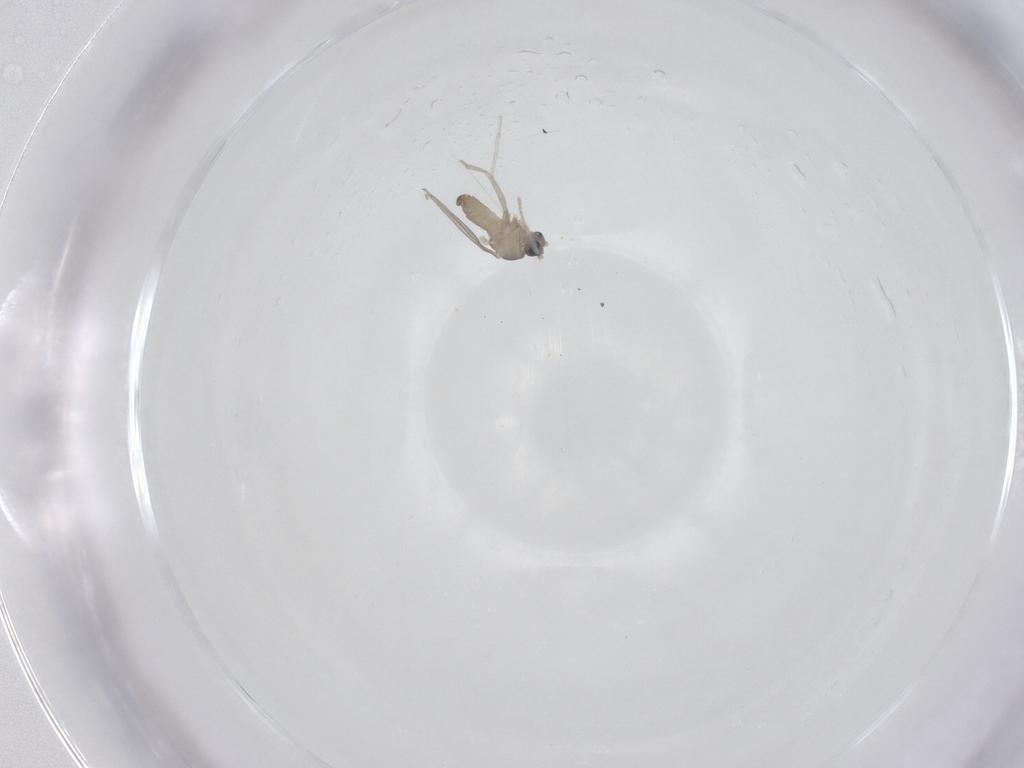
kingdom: Animalia
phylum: Arthropoda
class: Insecta
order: Diptera
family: Cecidomyiidae
